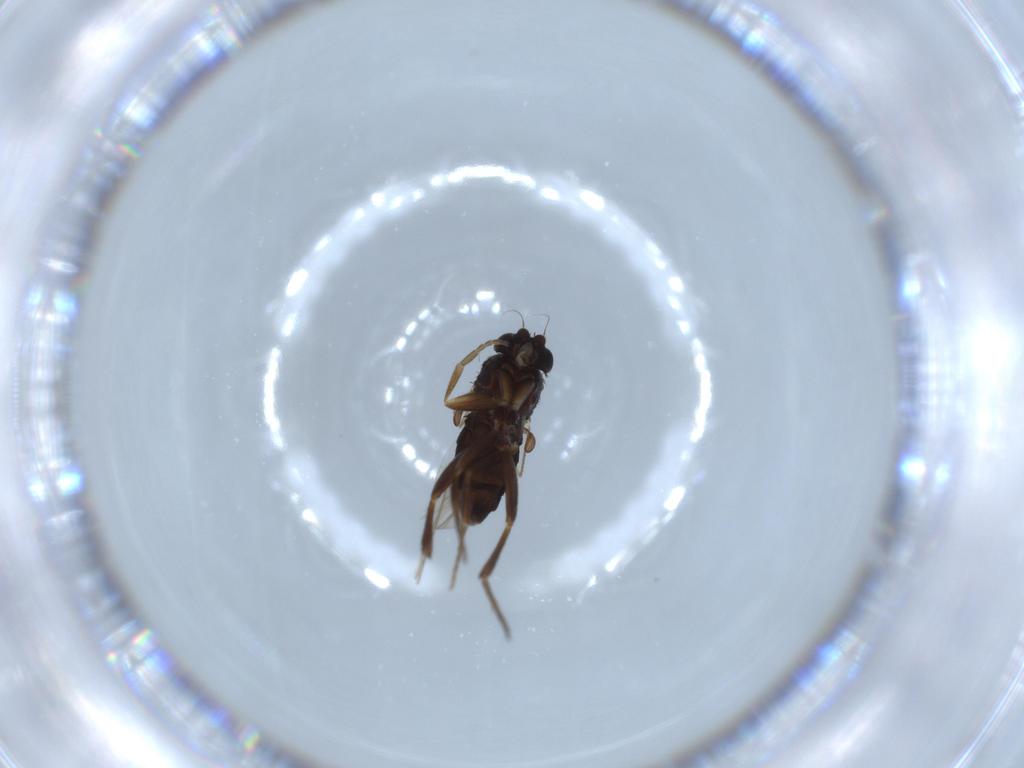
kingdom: Animalia
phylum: Arthropoda
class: Insecta
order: Diptera
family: Phoridae
